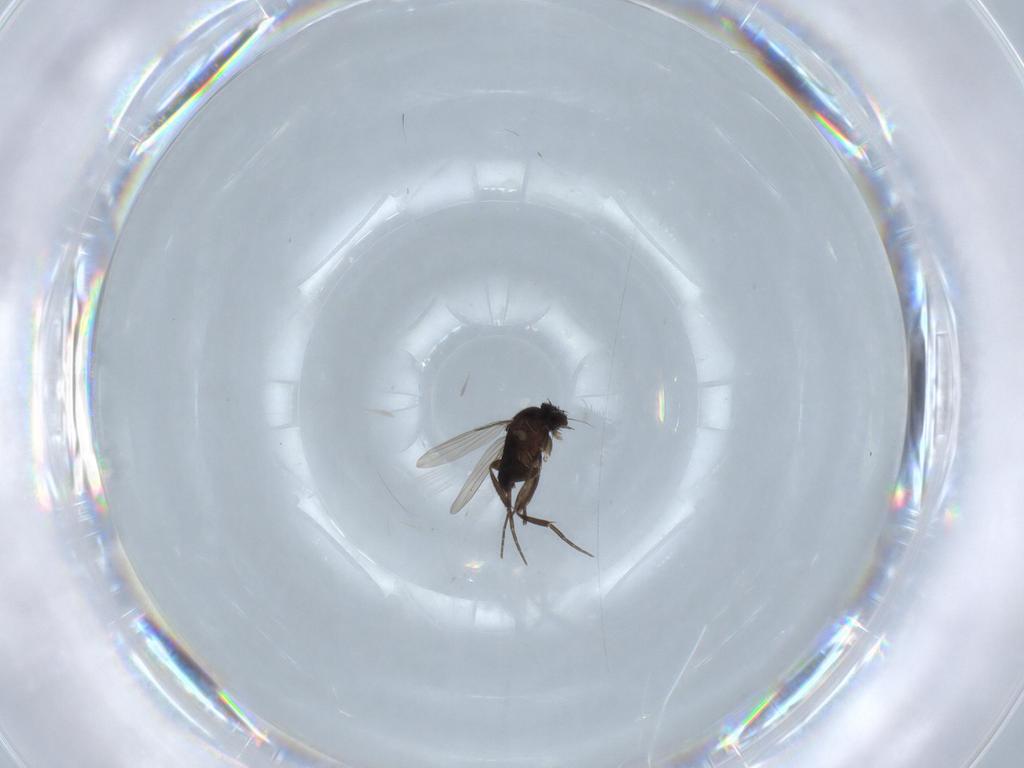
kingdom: Animalia
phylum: Arthropoda
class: Insecta
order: Diptera
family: Phoridae
